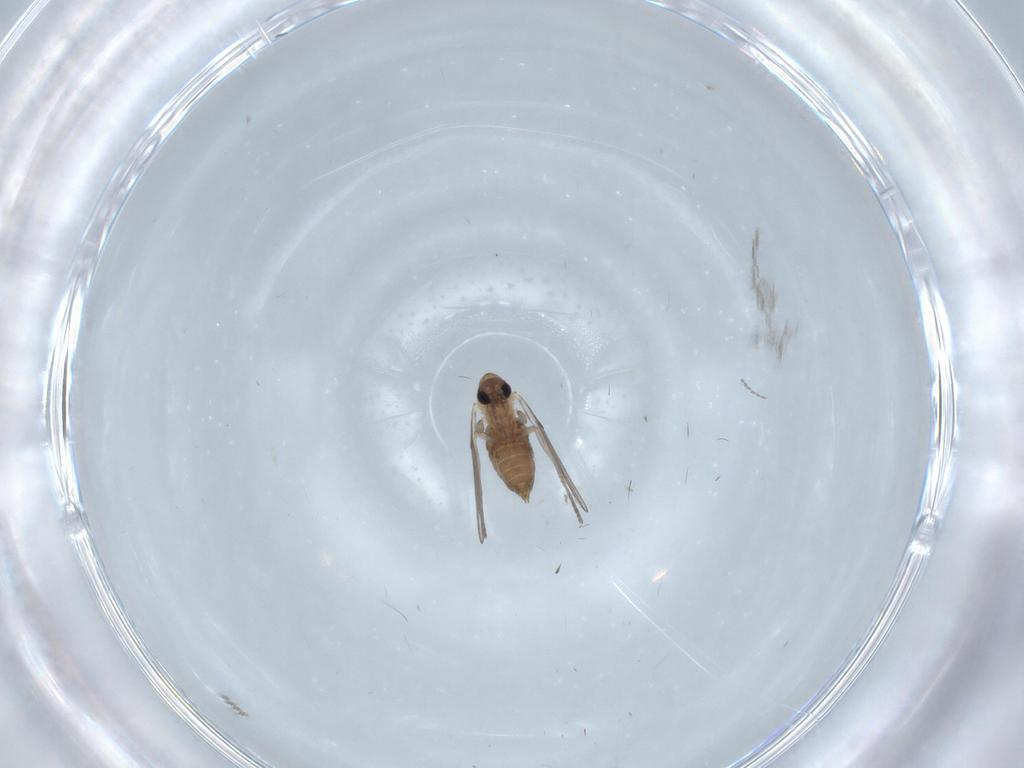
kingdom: Animalia
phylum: Arthropoda
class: Insecta
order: Diptera
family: Psychodidae
